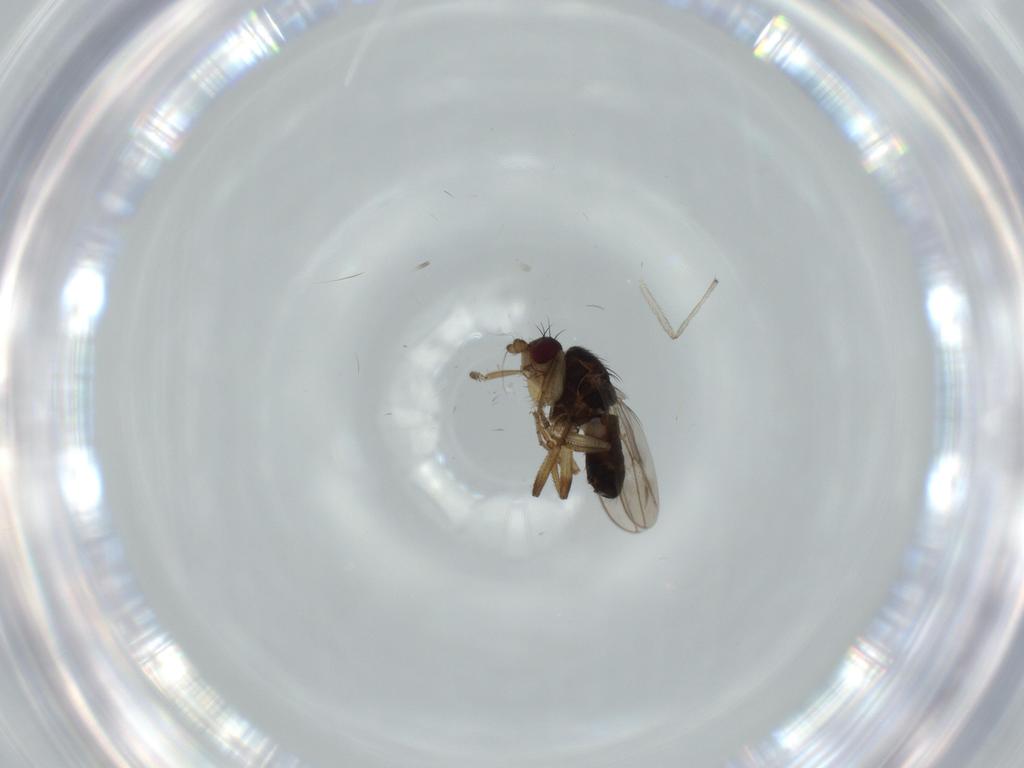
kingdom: Animalia
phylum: Arthropoda
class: Insecta
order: Diptera
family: Sphaeroceridae
